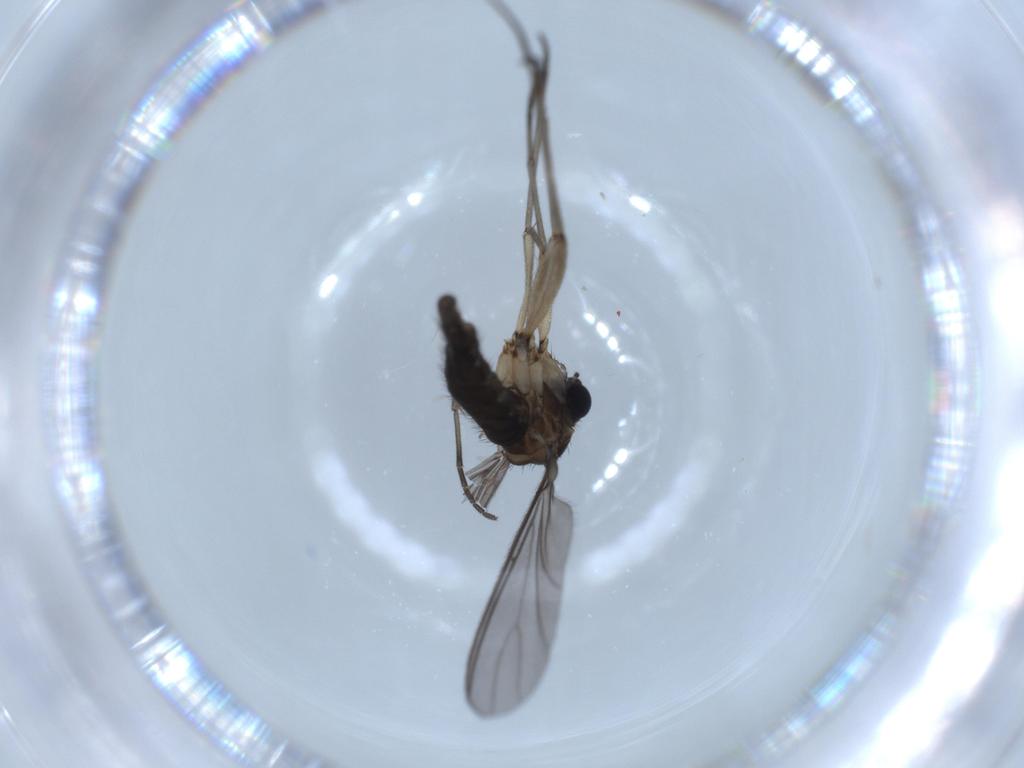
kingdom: Animalia
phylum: Arthropoda
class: Insecta
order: Diptera
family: Sciaridae
